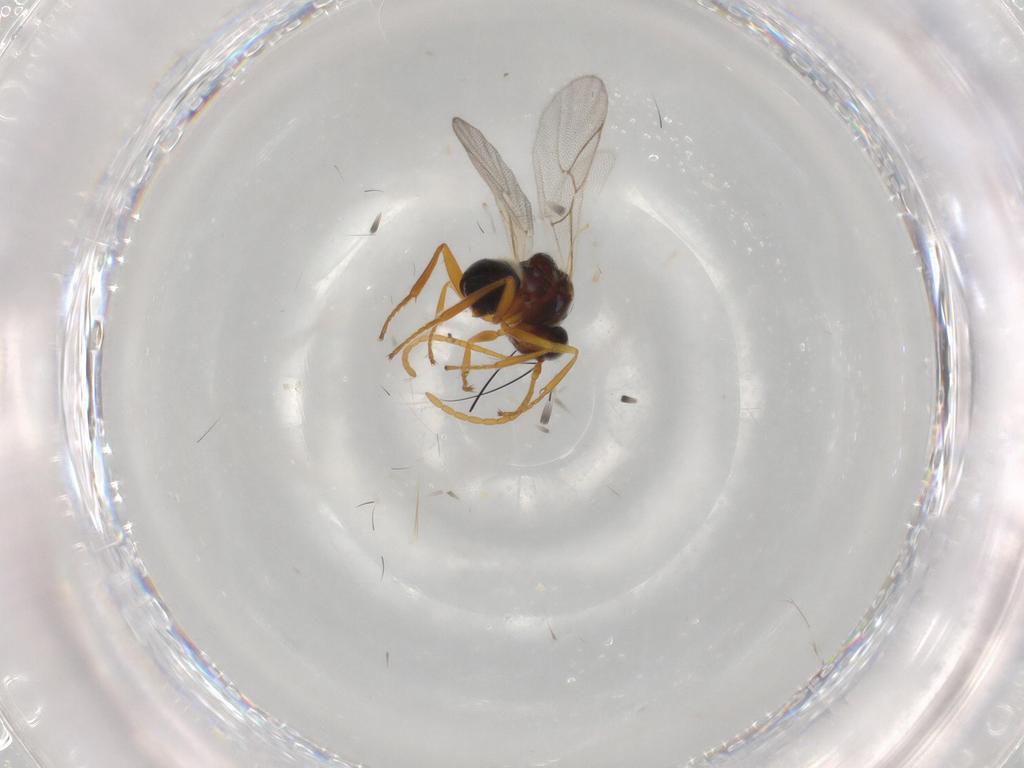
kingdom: Animalia
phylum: Arthropoda
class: Insecta
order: Hymenoptera
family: Figitidae
